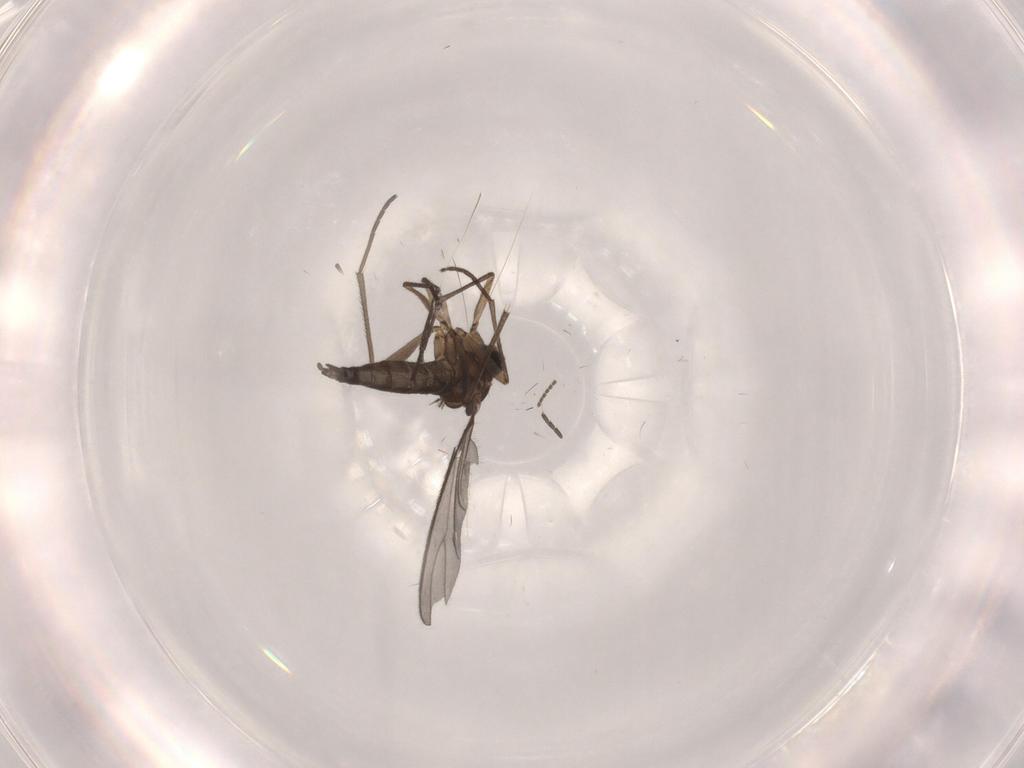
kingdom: Animalia
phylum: Arthropoda
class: Insecta
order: Diptera
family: Sciaridae
